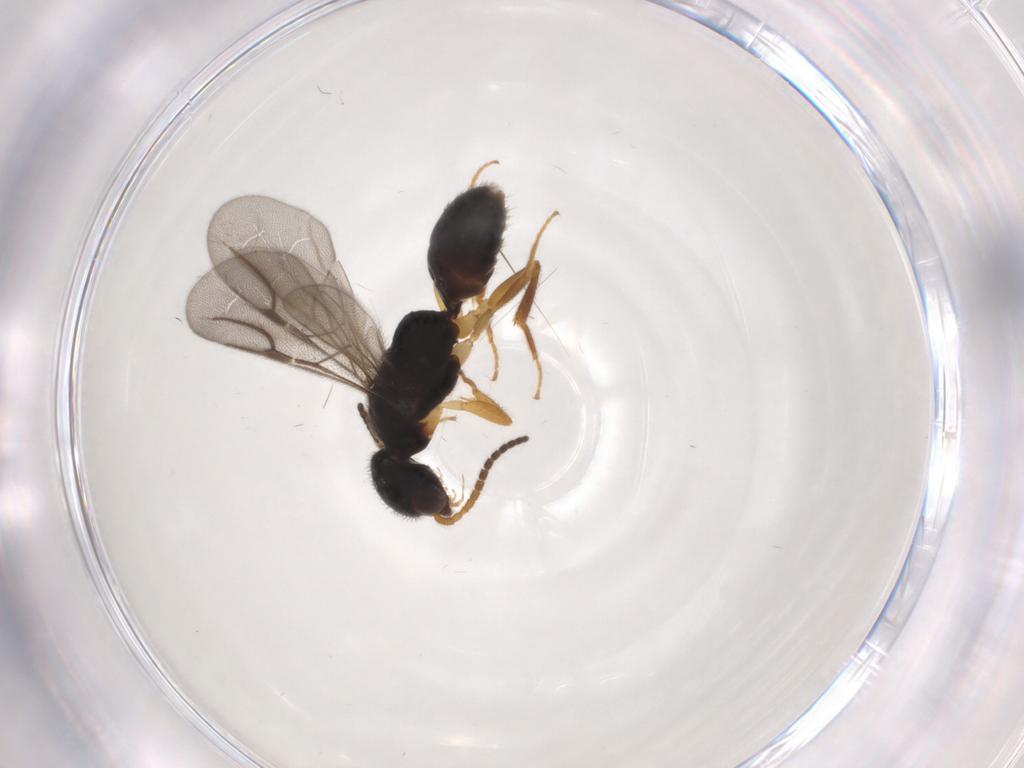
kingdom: Animalia
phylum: Arthropoda
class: Insecta
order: Hymenoptera
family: Bethylidae
